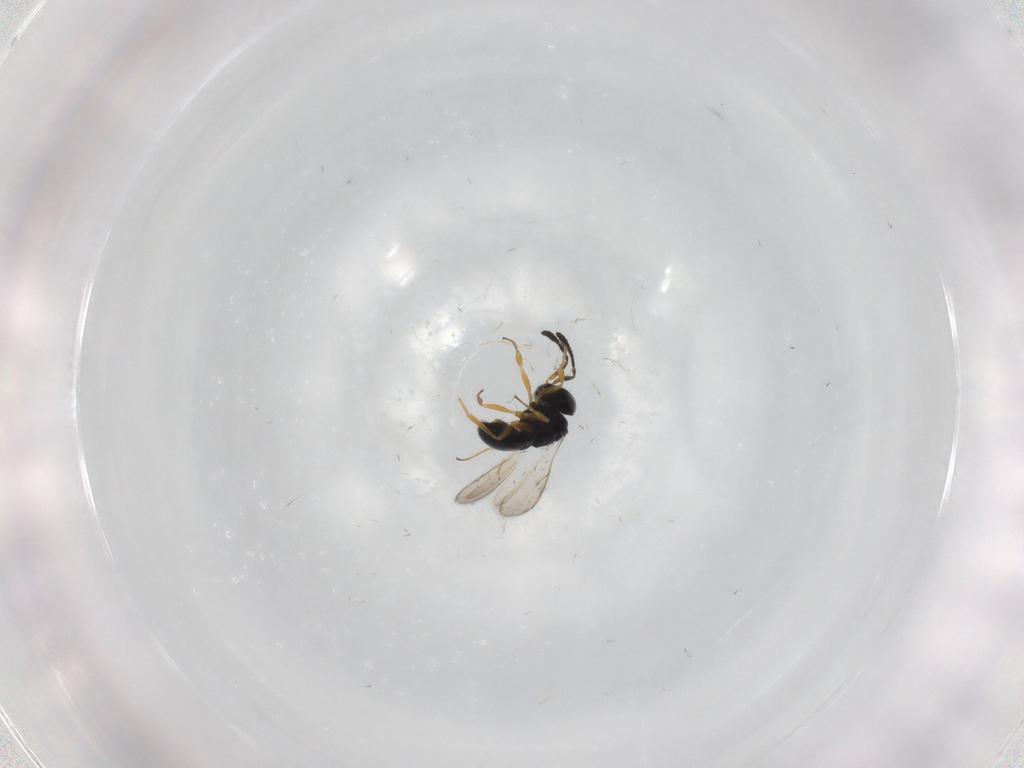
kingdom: Animalia
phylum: Arthropoda
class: Insecta
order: Hymenoptera
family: Scelionidae
